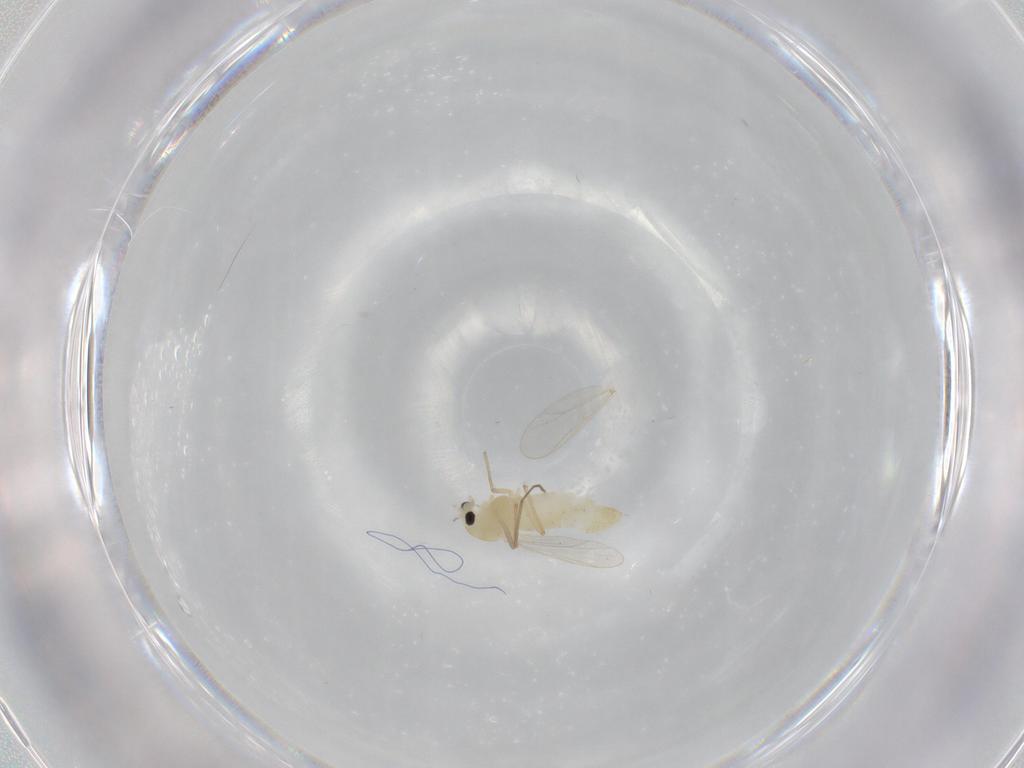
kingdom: Animalia
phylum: Arthropoda
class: Insecta
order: Diptera
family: Chironomidae
